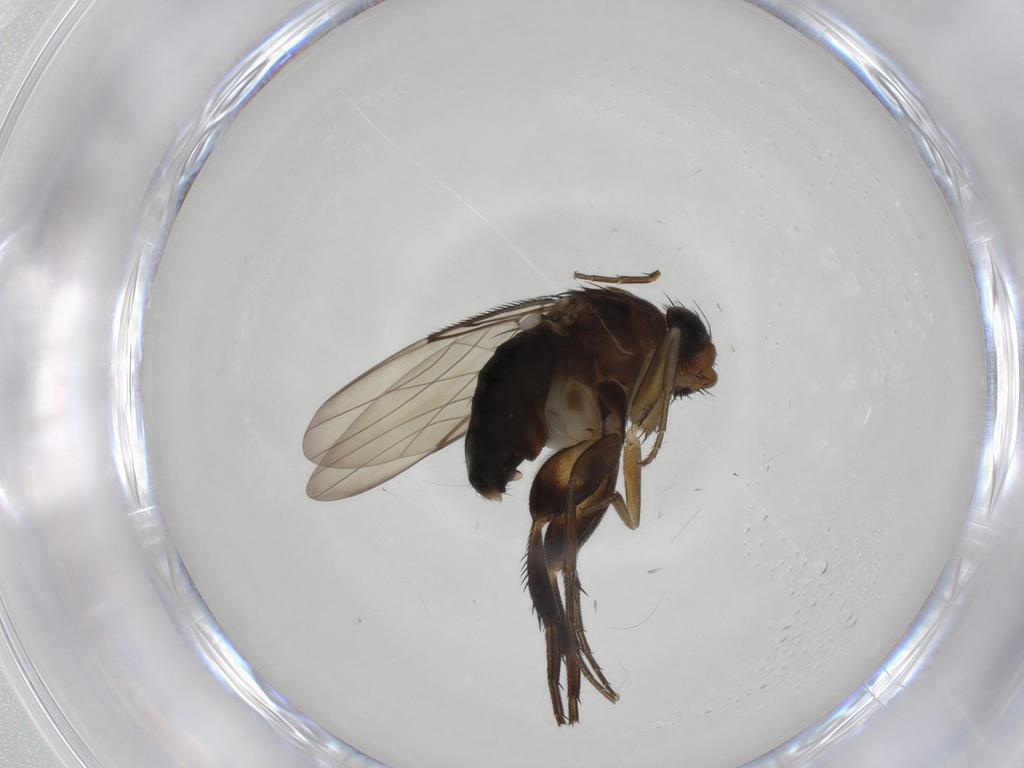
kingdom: Animalia
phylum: Arthropoda
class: Insecta
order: Diptera
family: Phoridae
